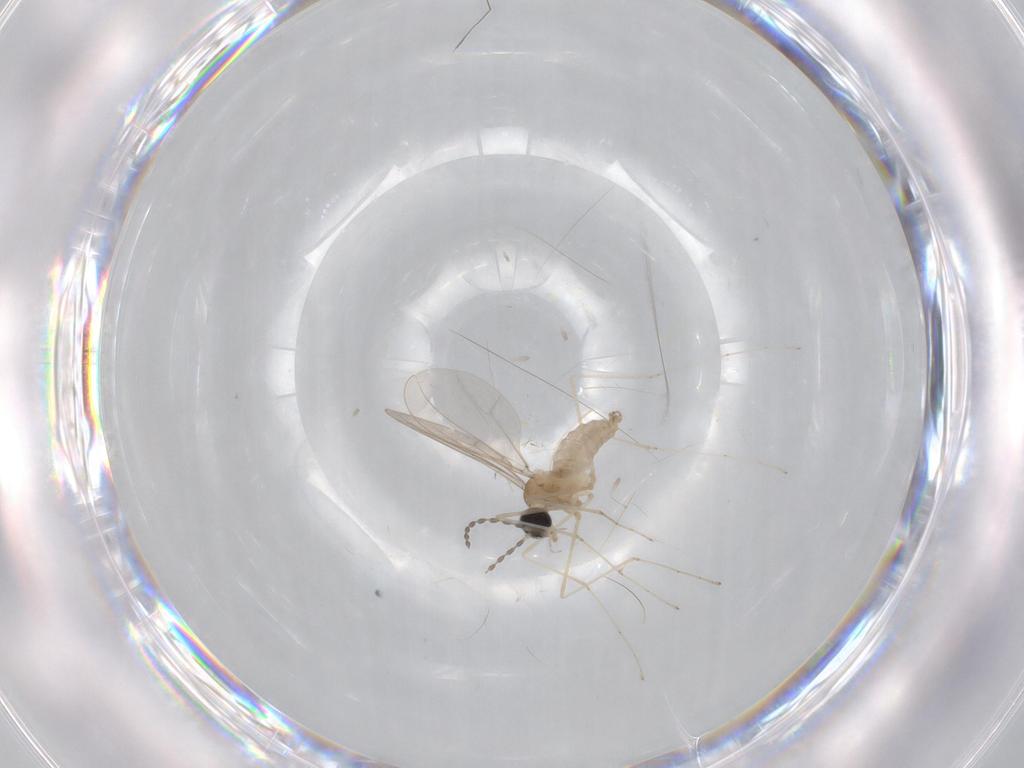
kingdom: Animalia
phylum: Arthropoda
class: Insecta
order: Diptera
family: Cecidomyiidae
